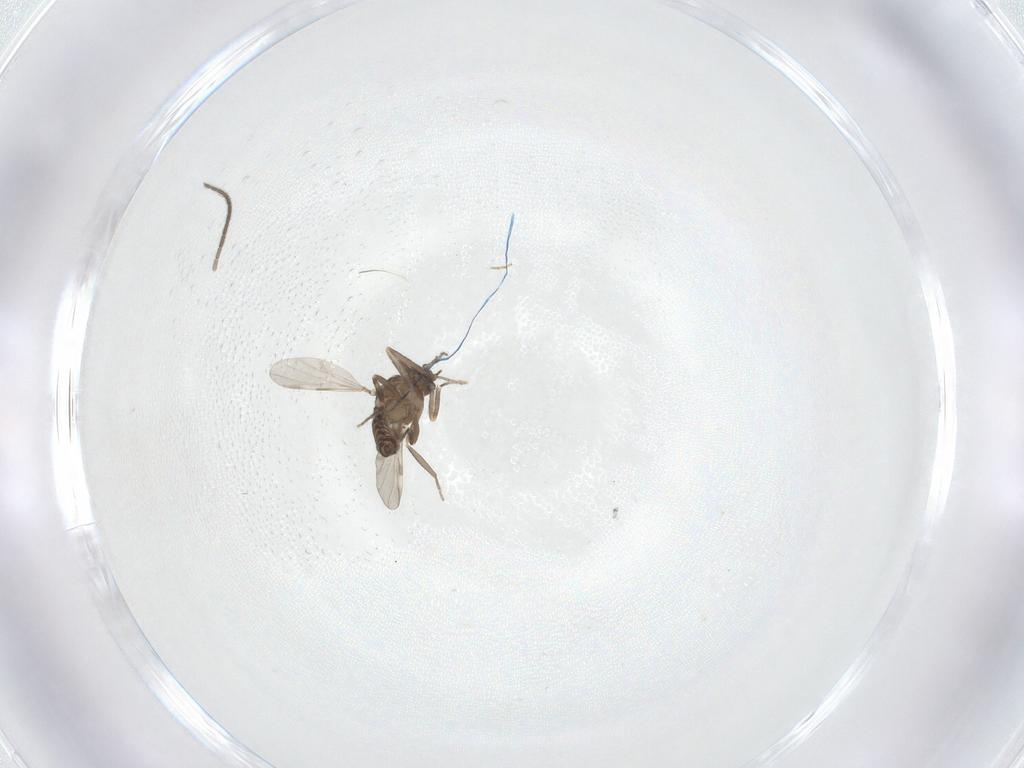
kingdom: Animalia
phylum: Arthropoda
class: Insecta
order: Diptera
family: Ceratopogonidae
